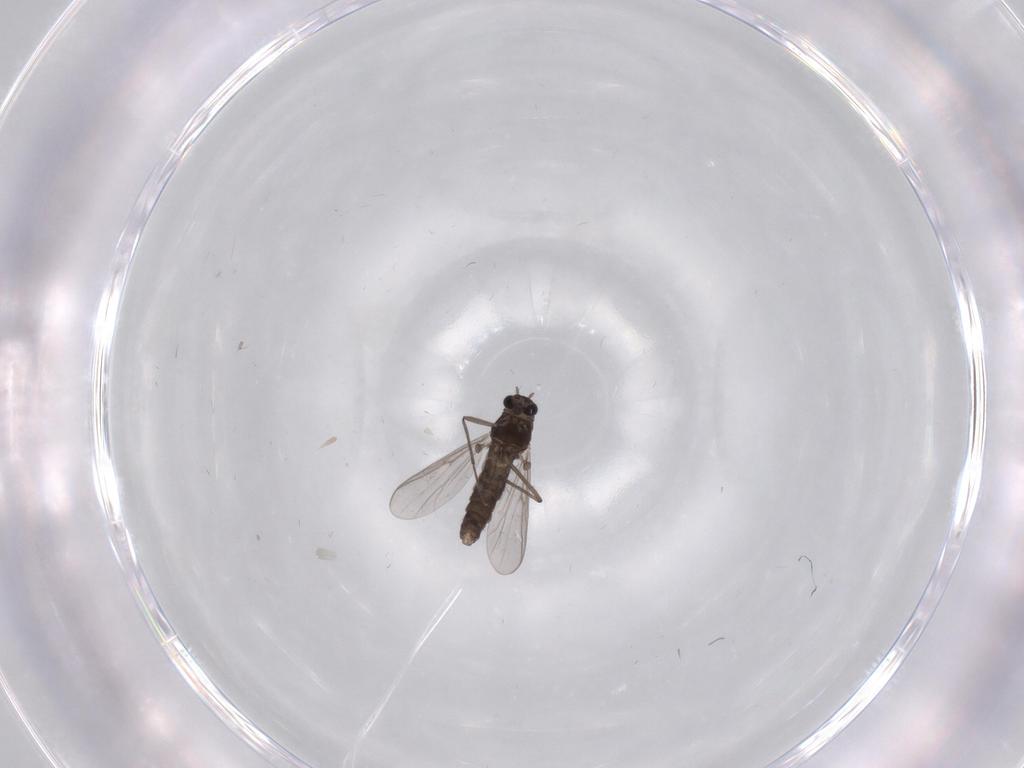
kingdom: Animalia
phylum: Arthropoda
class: Insecta
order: Diptera
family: Chironomidae
